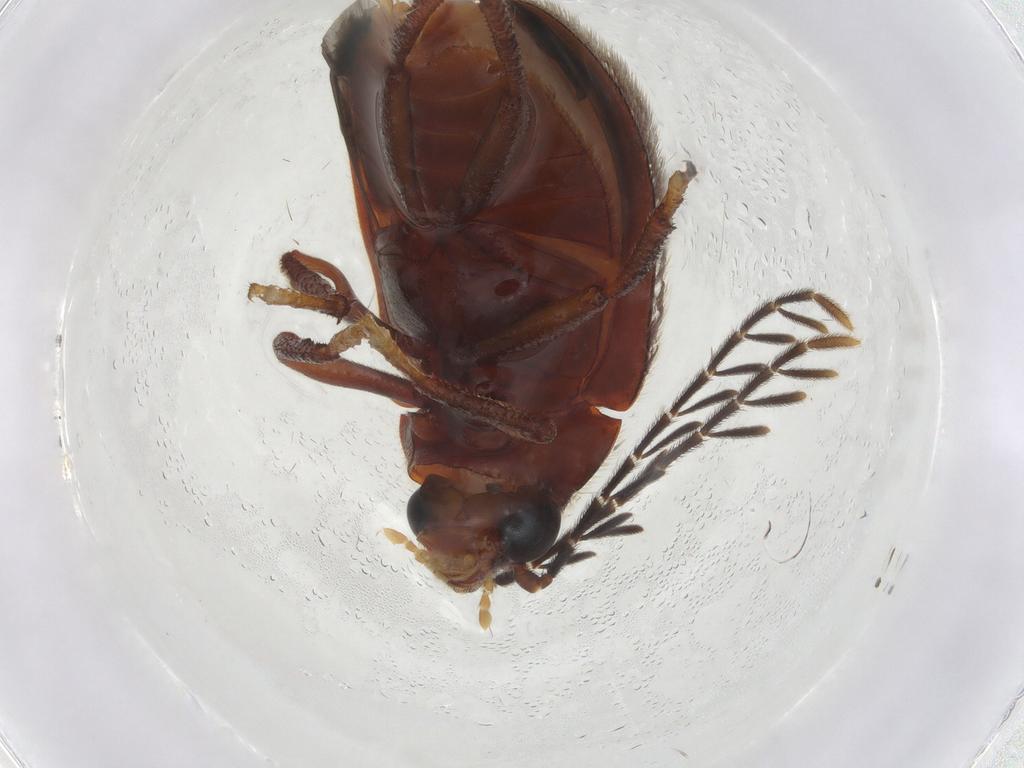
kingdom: Animalia
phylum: Arthropoda
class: Insecta
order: Coleoptera
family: Ptilodactylidae
